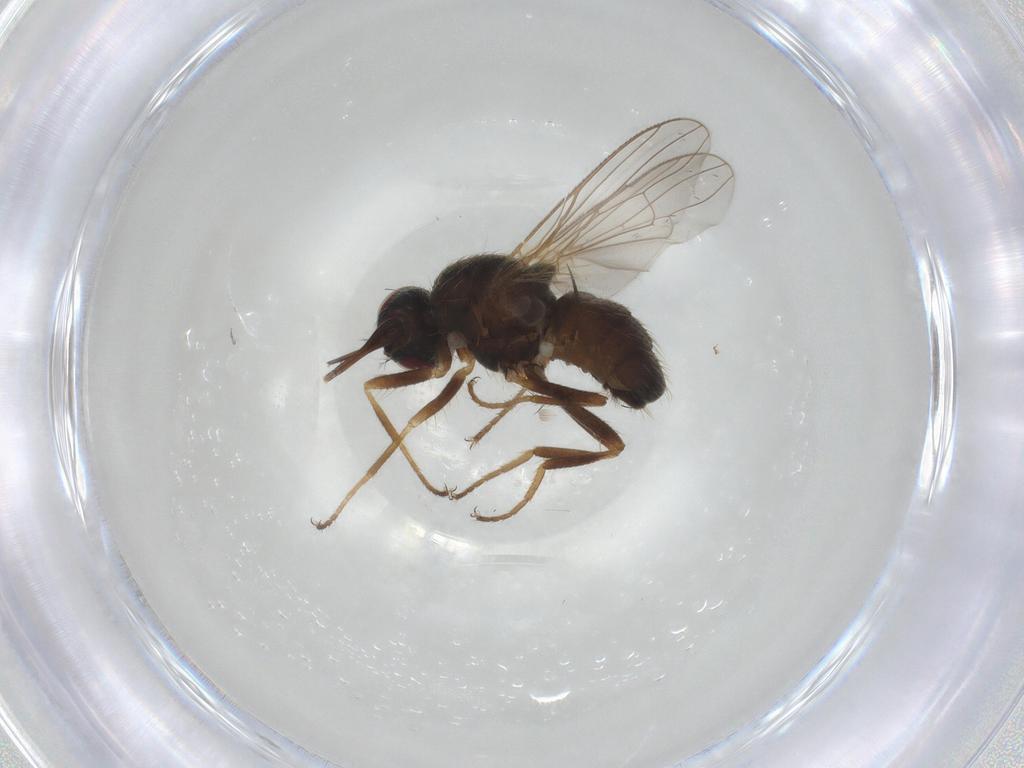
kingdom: Animalia
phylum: Arthropoda
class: Insecta
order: Diptera
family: Muscidae
